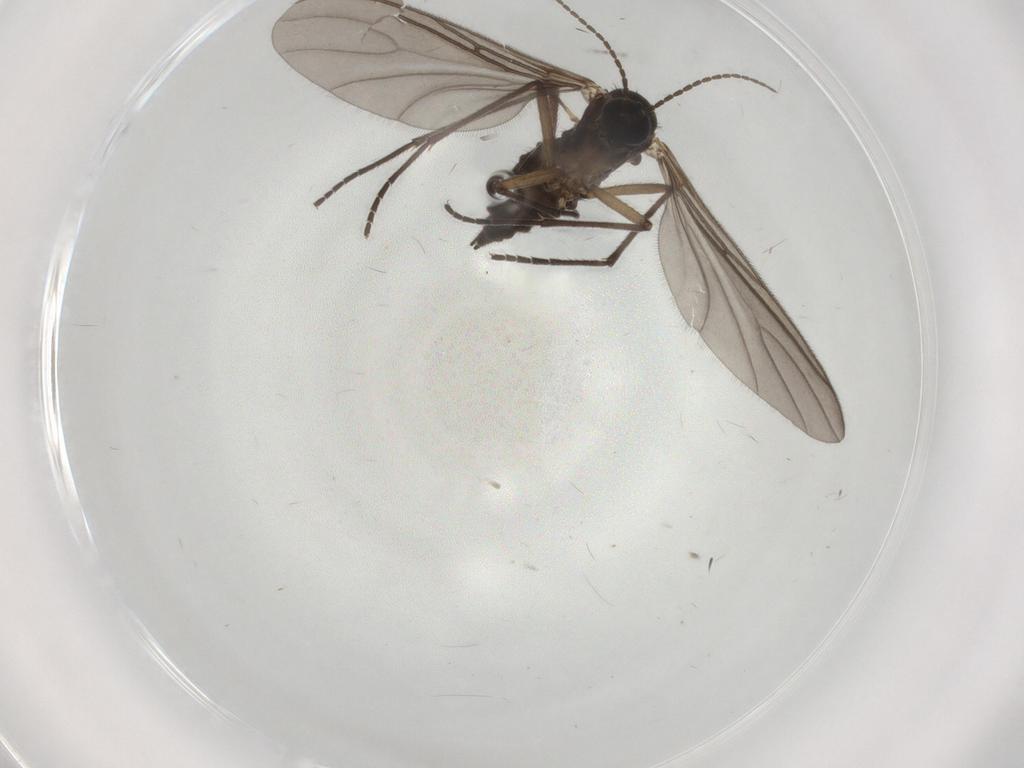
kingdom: Animalia
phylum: Arthropoda
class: Insecta
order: Diptera
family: Sciaridae
